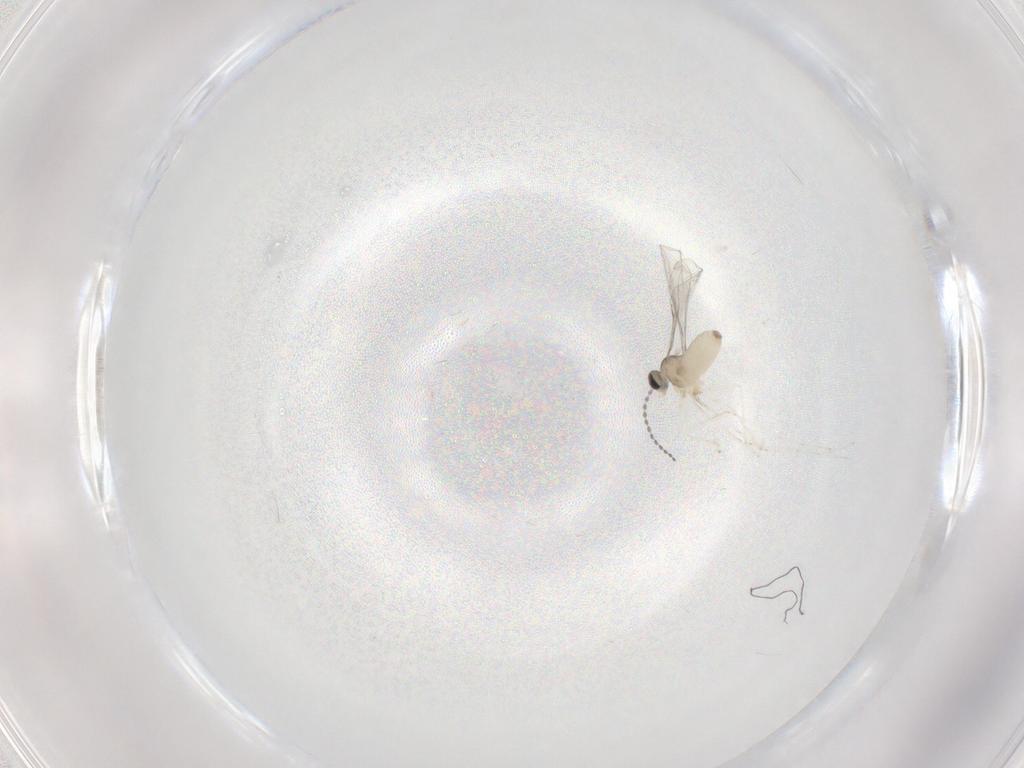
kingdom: Animalia
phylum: Arthropoda
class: Insecta
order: Diptera
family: Cecidomyiidae
